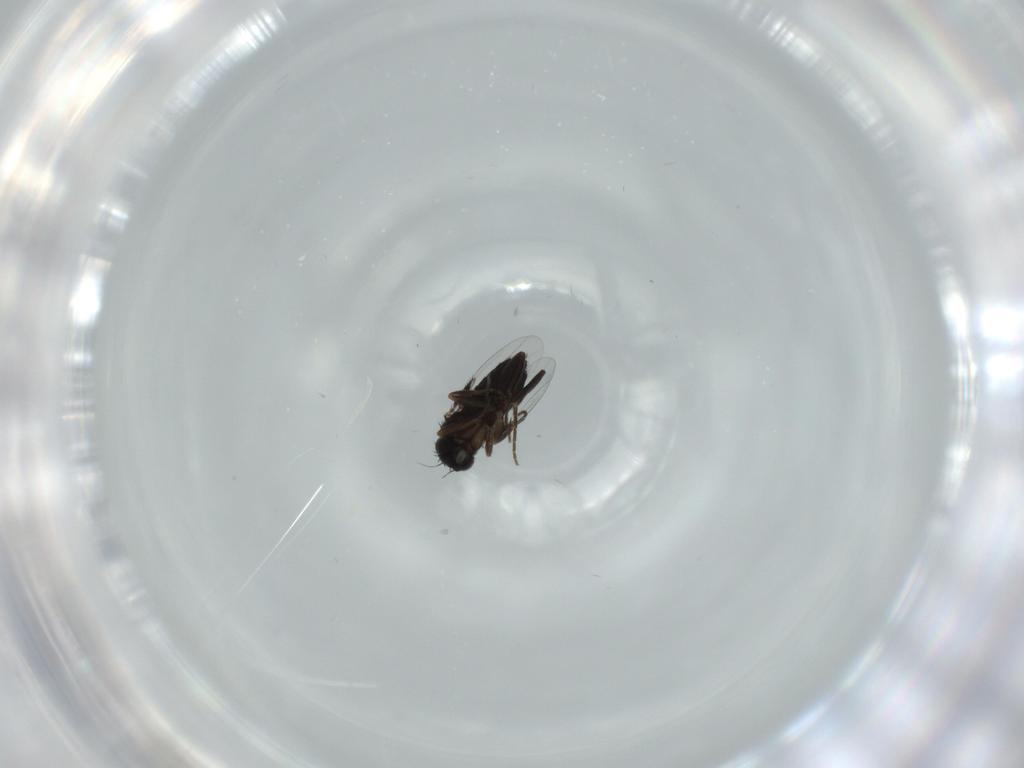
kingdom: Animalia
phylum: Arthropoda
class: Insecta
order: Diptera
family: Phoridae
